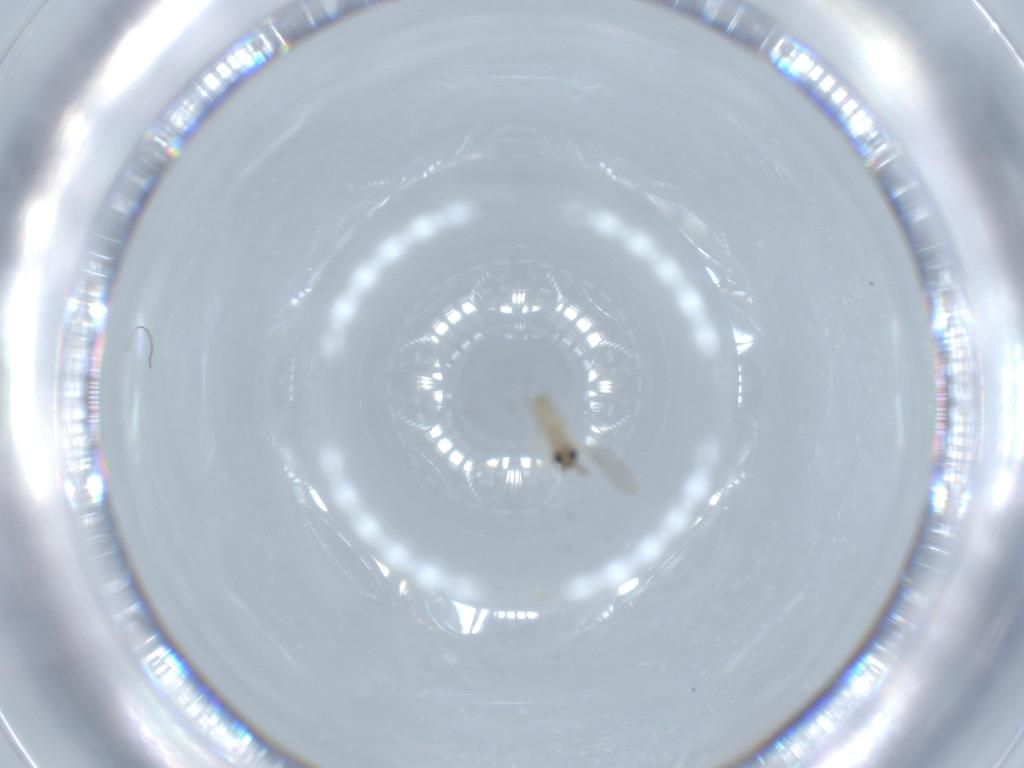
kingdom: Animalia
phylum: Arthropoda
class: Insecta
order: Diptera
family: Cecidomyiidae
